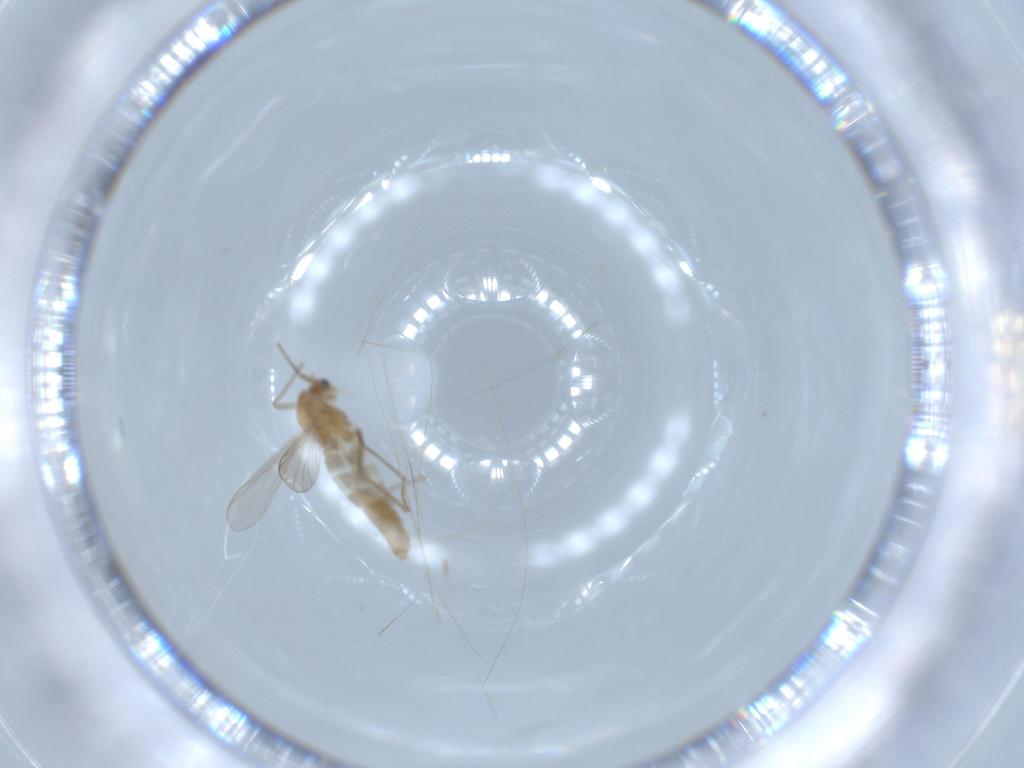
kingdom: Animalia
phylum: Arthropoda
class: Insecta
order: Diptera
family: Chironomidae
